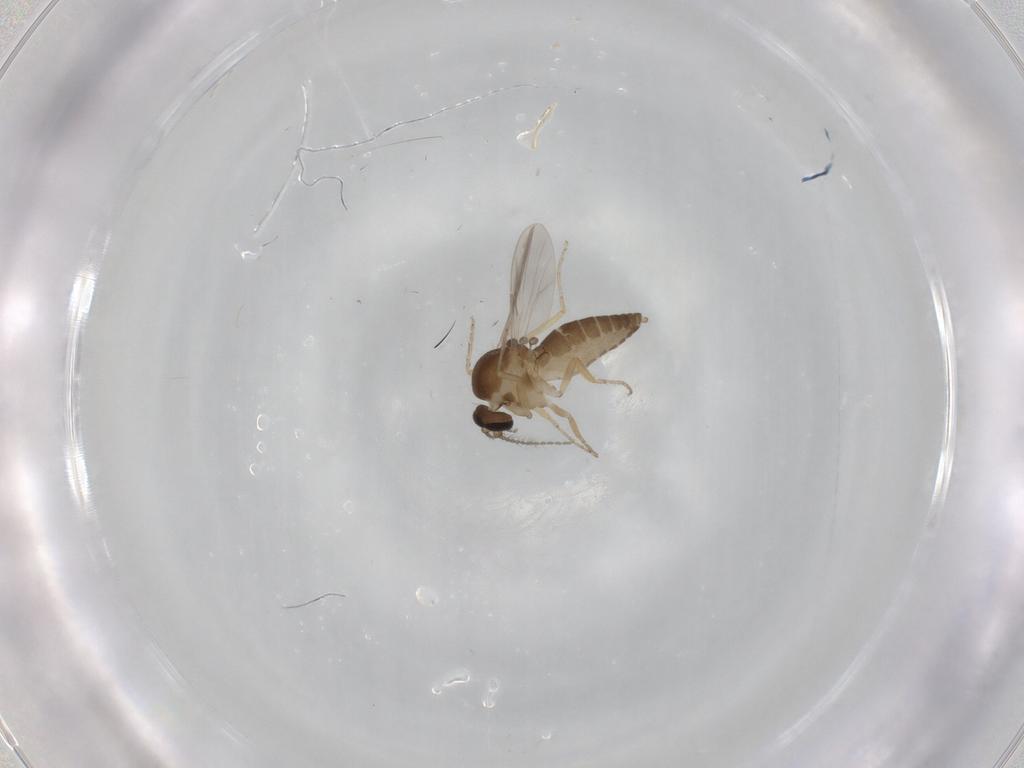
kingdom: Animalia
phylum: Arthropoda
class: Insecta
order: Diptera
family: Ceratopogonidae
